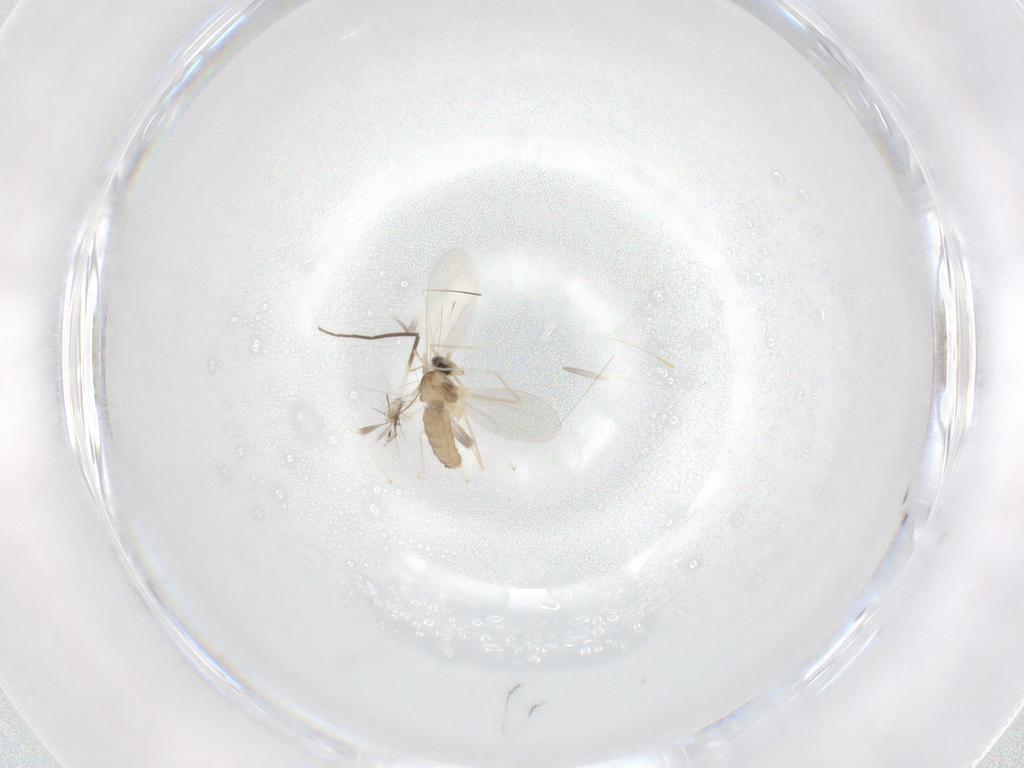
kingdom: Animalia
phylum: Arthropoda
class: Insecta
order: Diptera
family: Chironomidae
